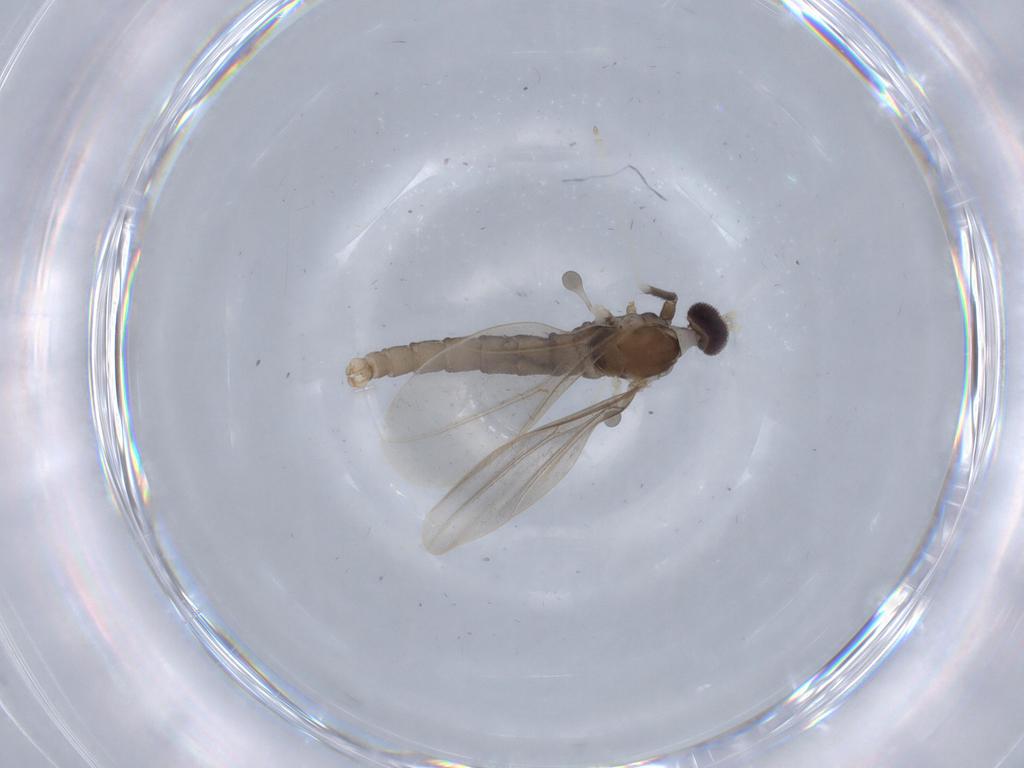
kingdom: Animalia
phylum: Arthropoda
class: Insecta
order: Diptera
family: Cecidomyiidae
